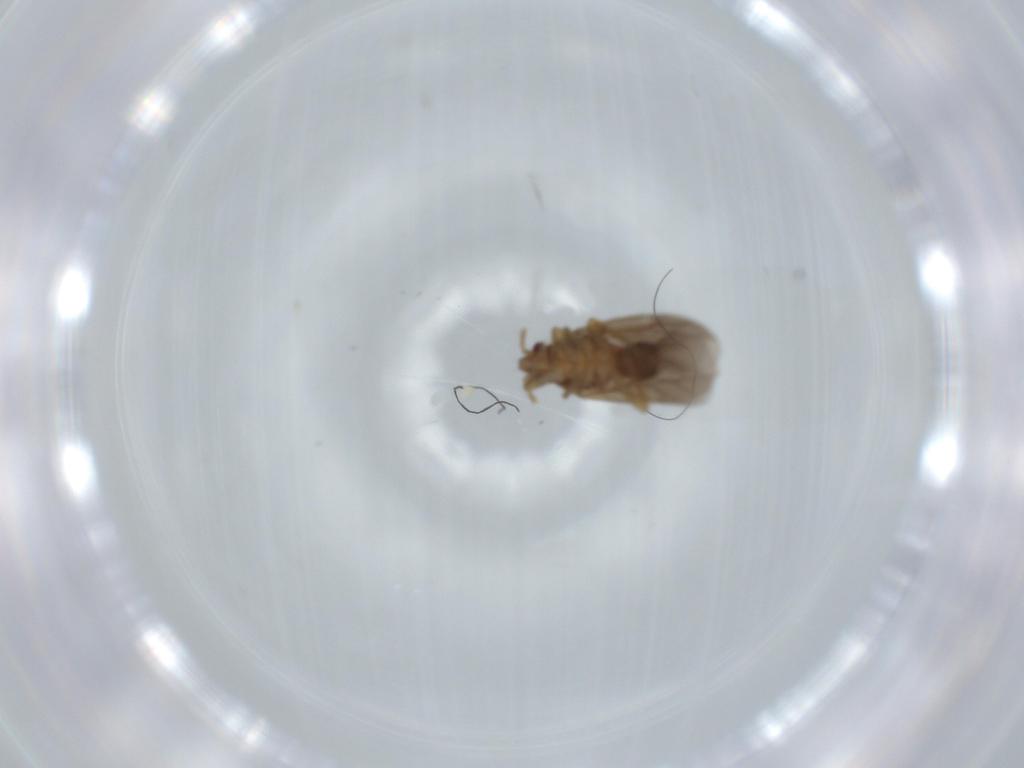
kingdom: Animalia
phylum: Arthropoda
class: Insecta
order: Hemiptera
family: Ceratocombidae
